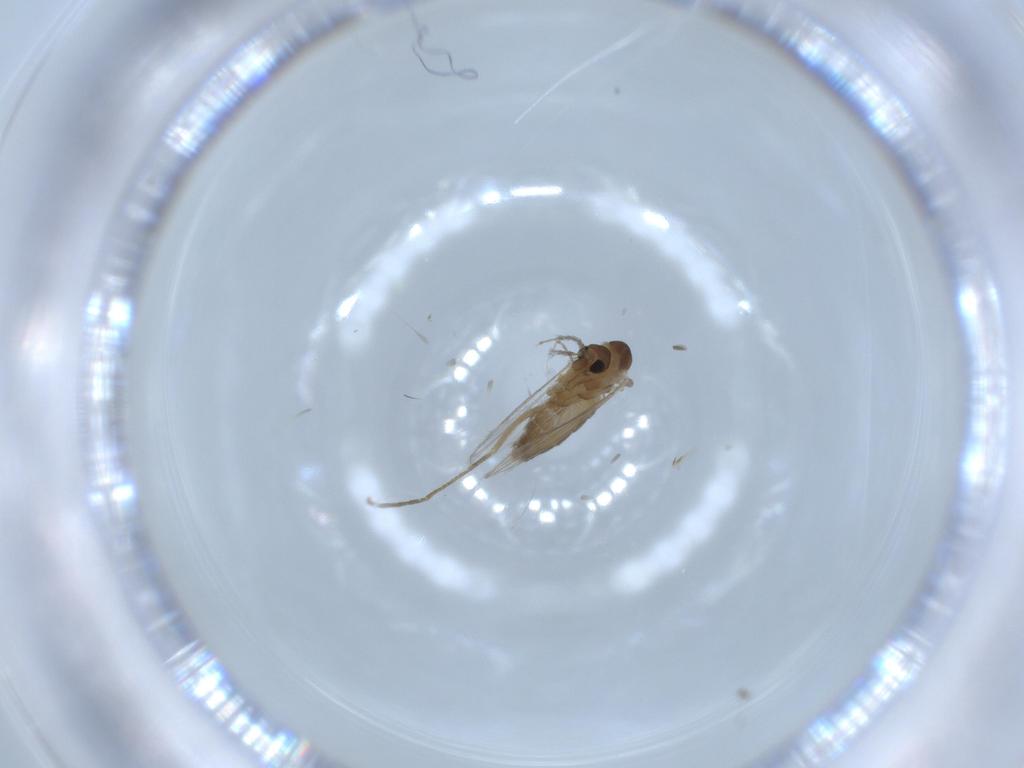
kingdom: Animalia
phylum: Arthropoda
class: Insecta
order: Diptera
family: Psychodidae
